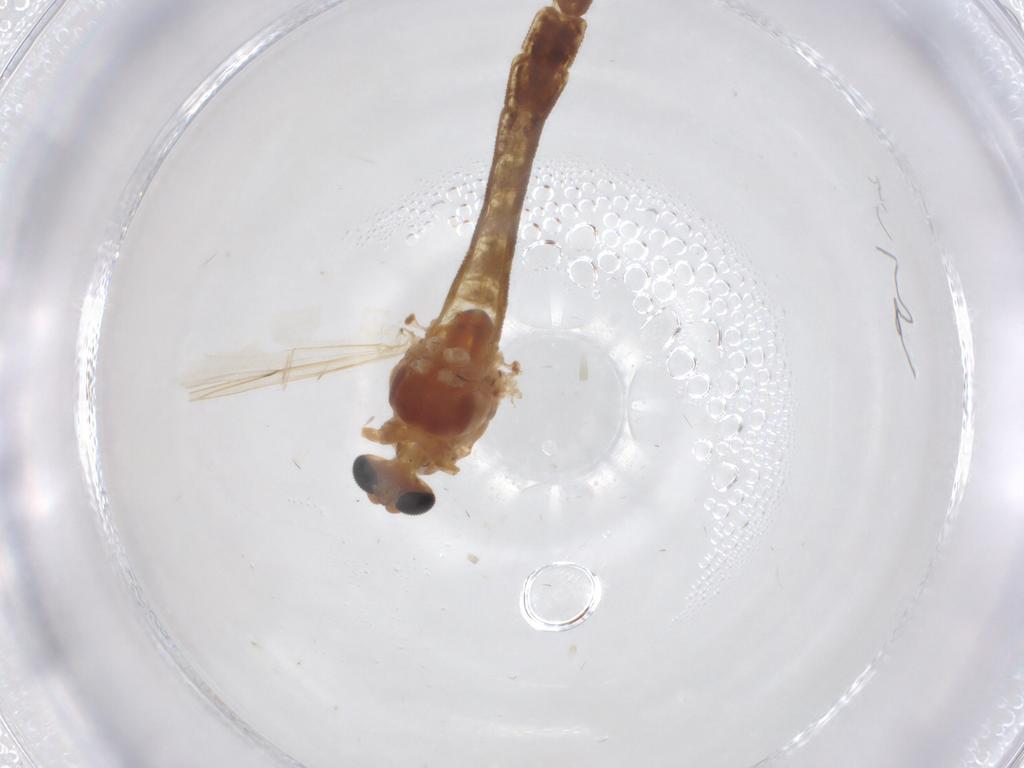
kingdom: Animalia
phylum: Arthropoda
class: Insecta
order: Diptera
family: Chironomidae
